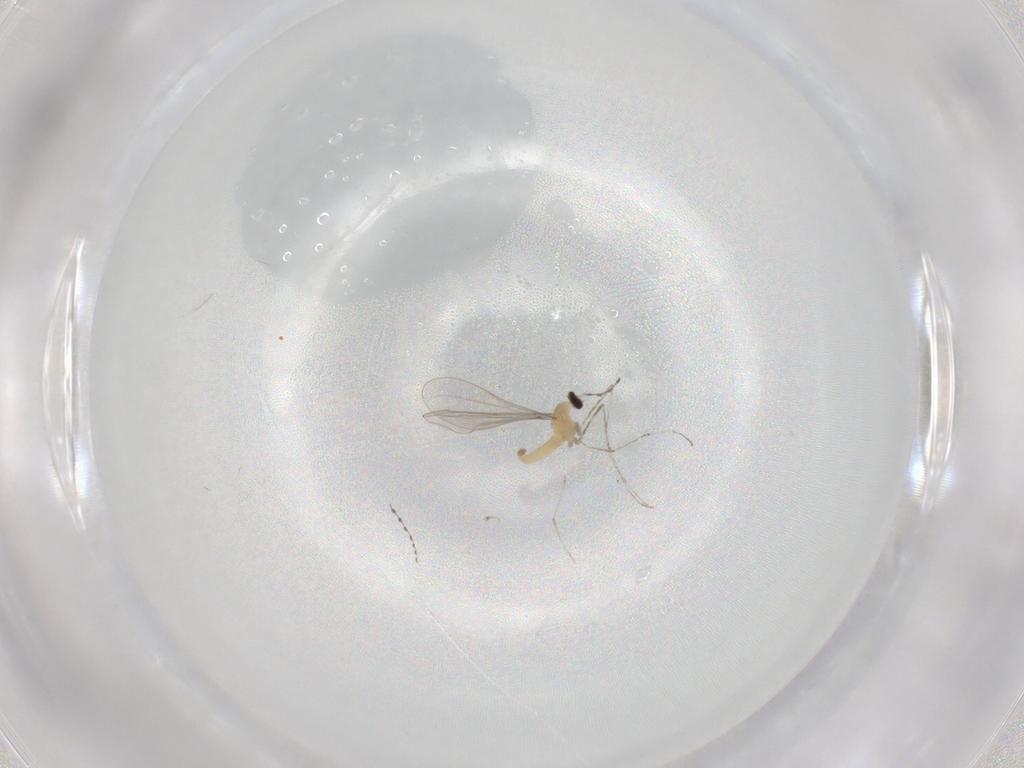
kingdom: Animalia
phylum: Arthropoda
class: Insecta
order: Diptera
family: Cecidomyiidae
